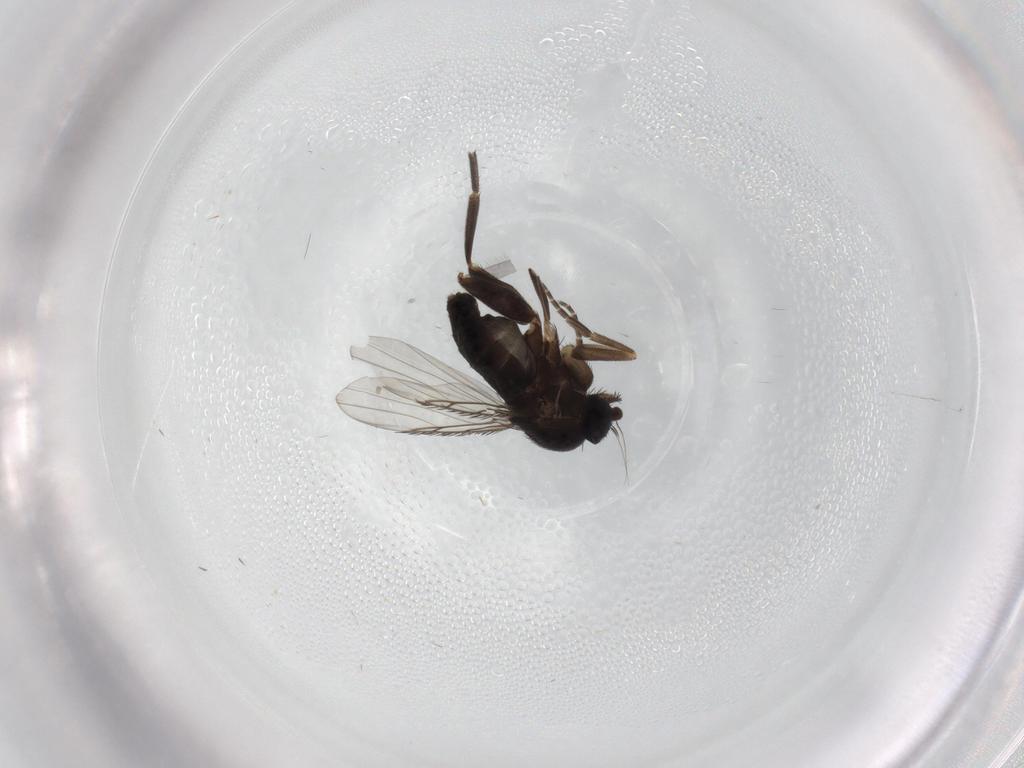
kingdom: Animalia
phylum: Arthropoda
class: Insecta
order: Diptera
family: Phoridae
